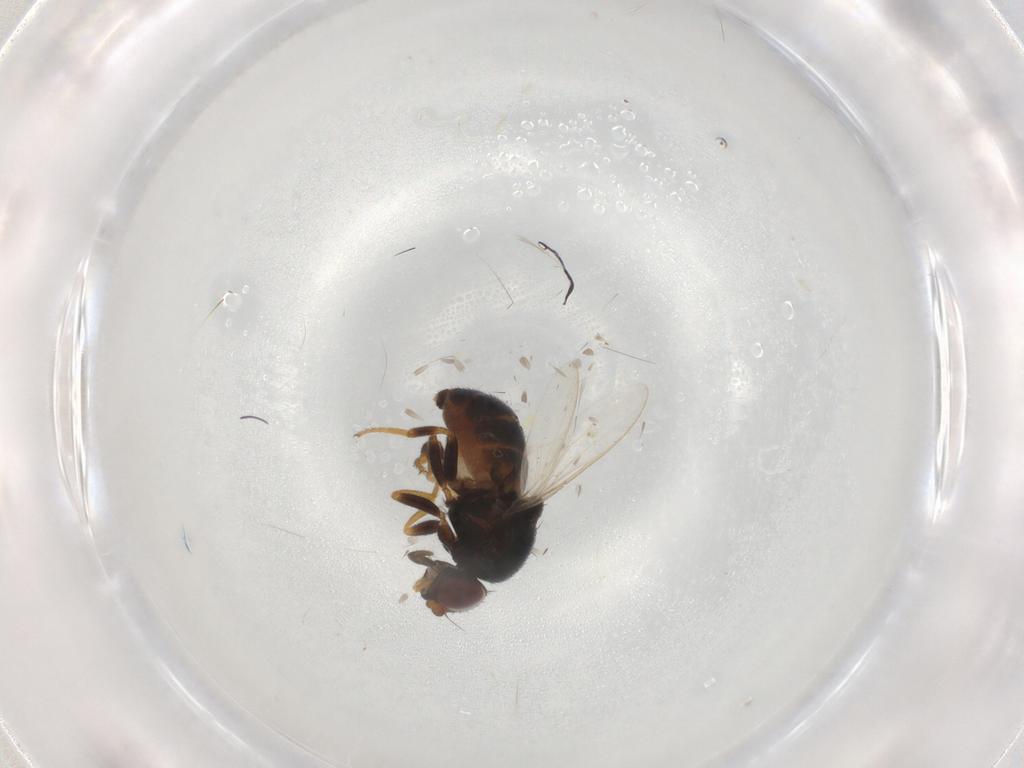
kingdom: Animalia
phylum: Arthropoda
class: Insecta
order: Diptera
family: Chloropidae
